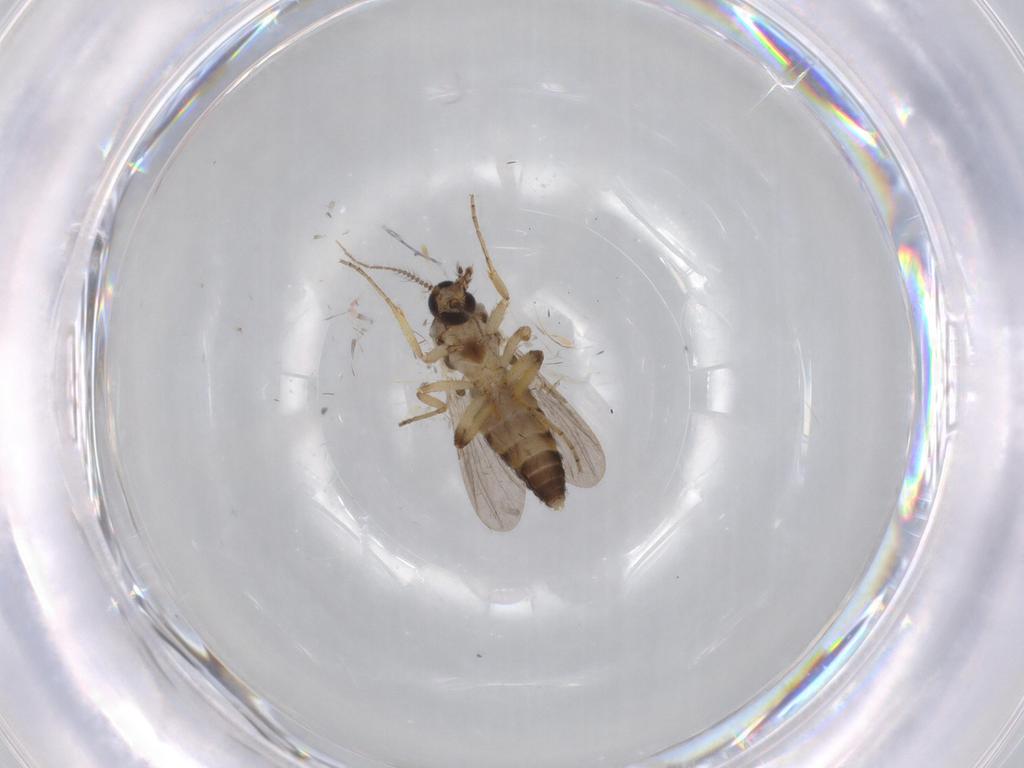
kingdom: Animalia
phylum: Arthropoda
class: Insecta
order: Diptera
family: Ceratopogonidae
